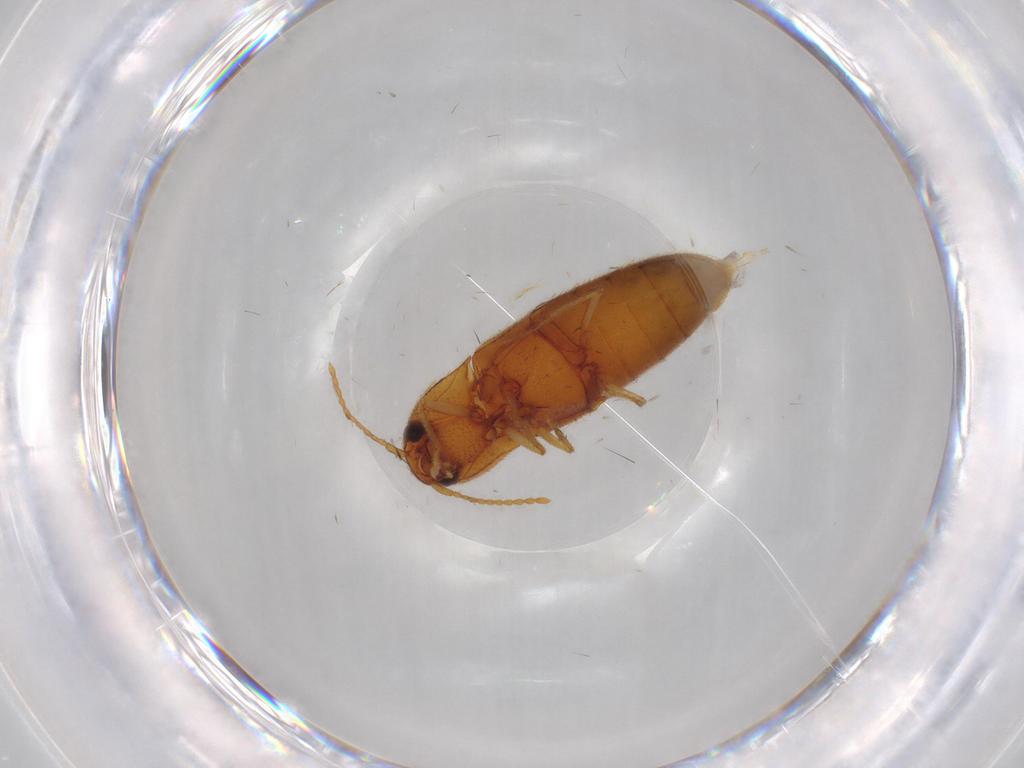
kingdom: Animalia
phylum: Arthropoda
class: Insecta
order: Coleoptera
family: Elateridae
